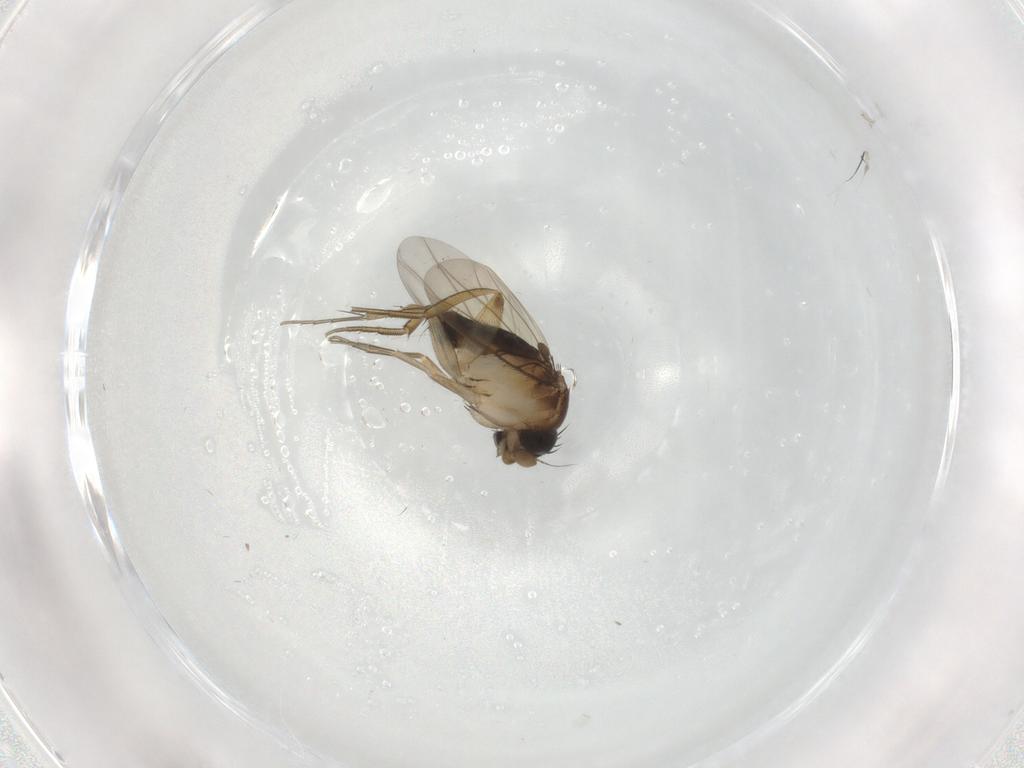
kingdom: Animalia
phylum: Arthropoda
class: Insecta
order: Diptera
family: Phoridae
